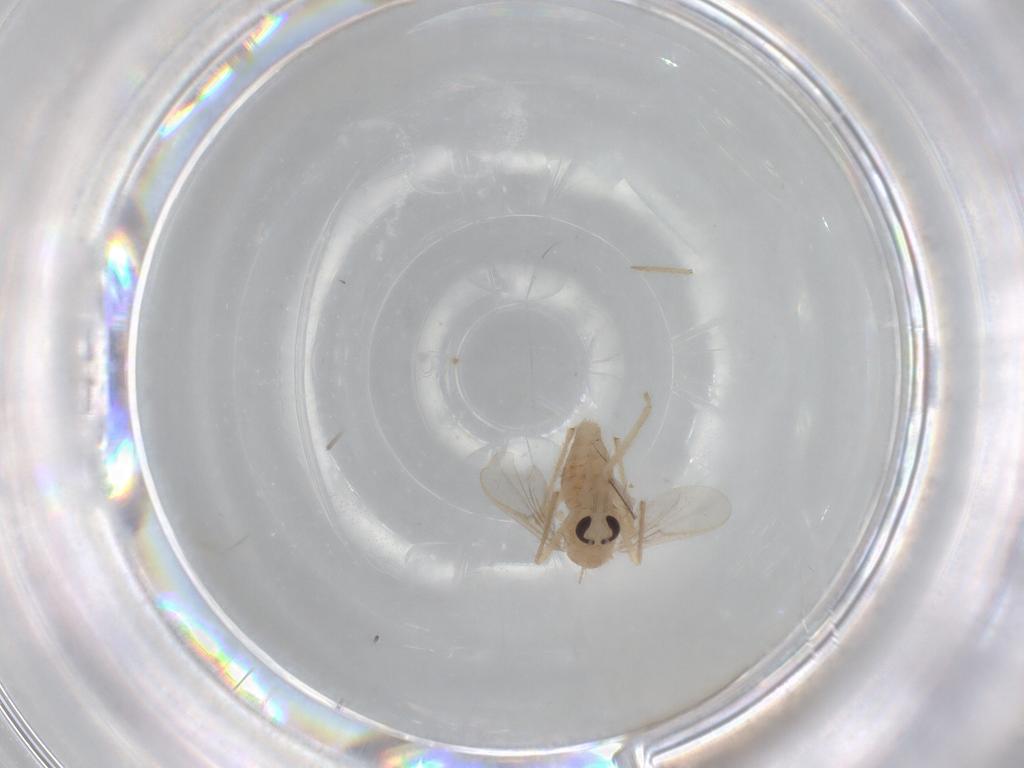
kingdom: Animalia
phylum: Arthropoda
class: Insecta
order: Diptera
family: Chironomidae
